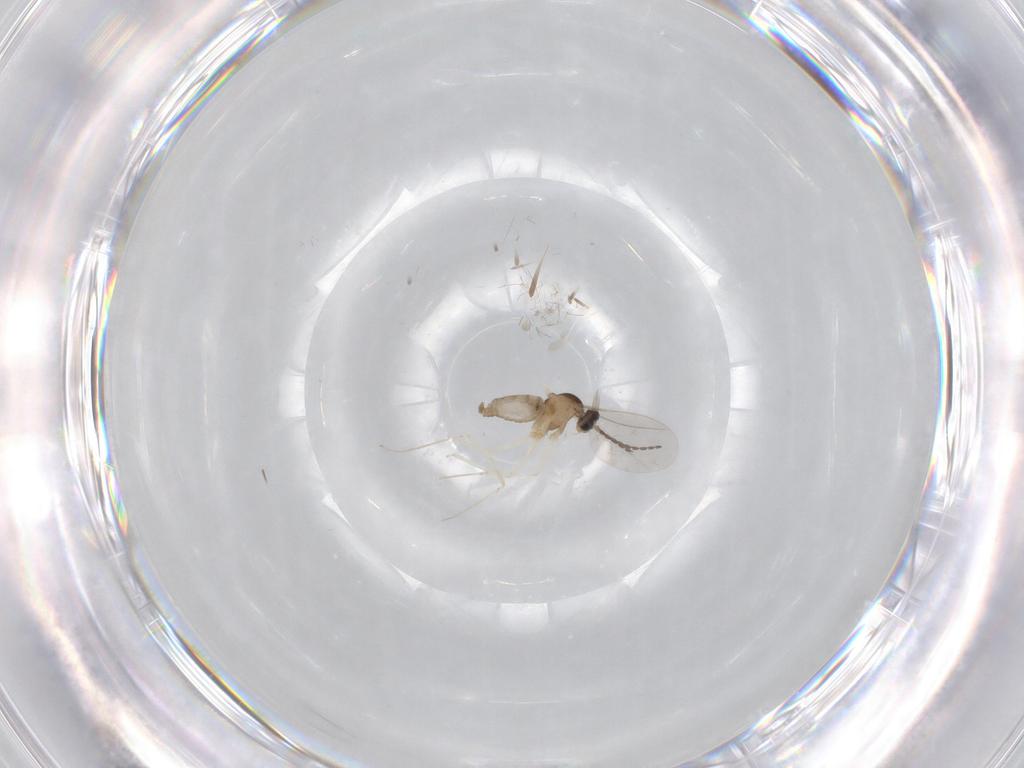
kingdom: Animalia
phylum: Arthropoda
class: Insecta
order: Diptera
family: Cecidomyiidae
